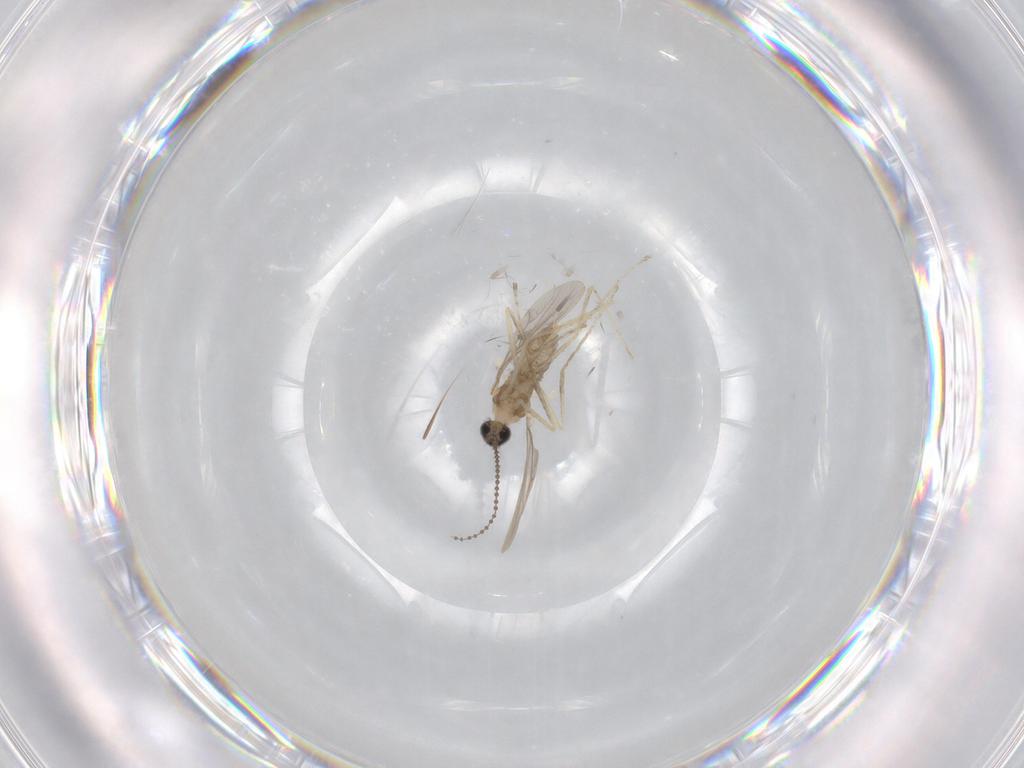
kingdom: Animalia
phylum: Arthropoda
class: Insecta
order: Diptera
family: Cecidomyiidae
